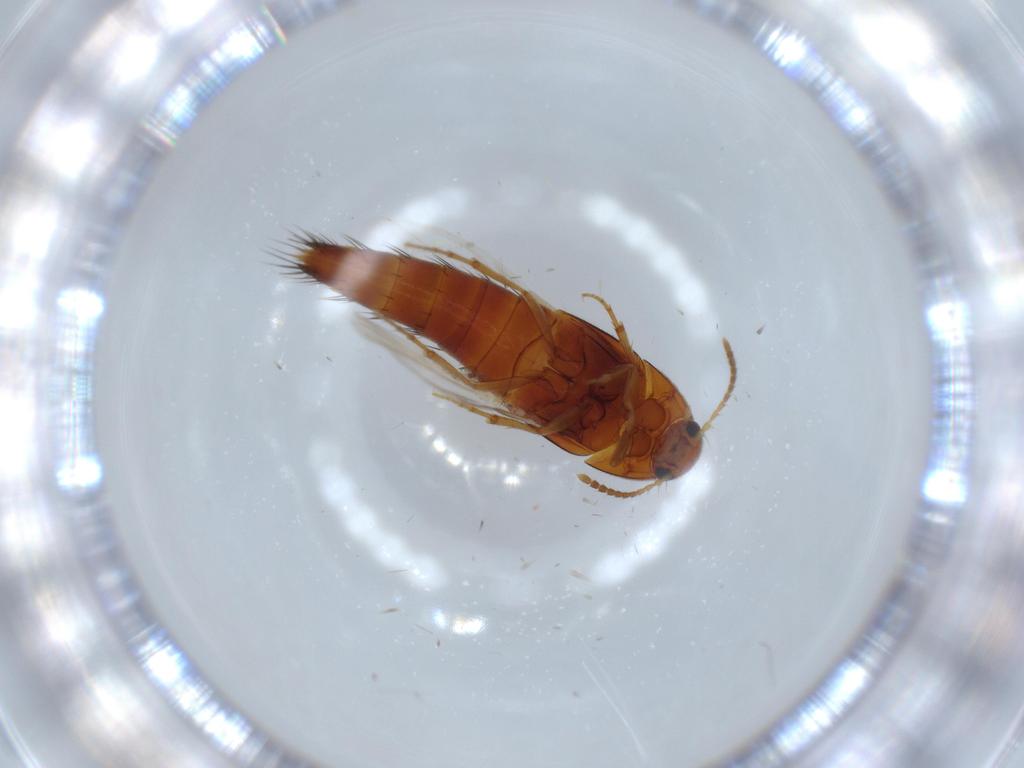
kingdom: Animalia
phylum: Arthropoda
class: Insecta
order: Coleoptera
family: Staphylinidae
